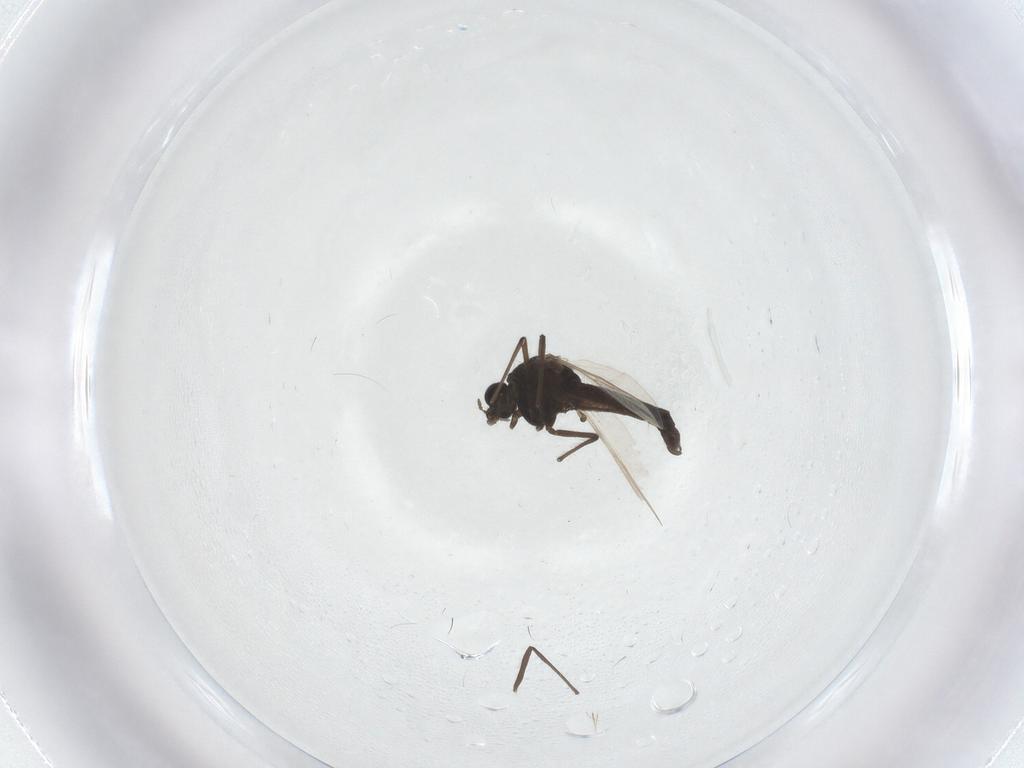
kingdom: Animalia
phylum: Arthropoda
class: Insecta
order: Diptera
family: Chironomidae
